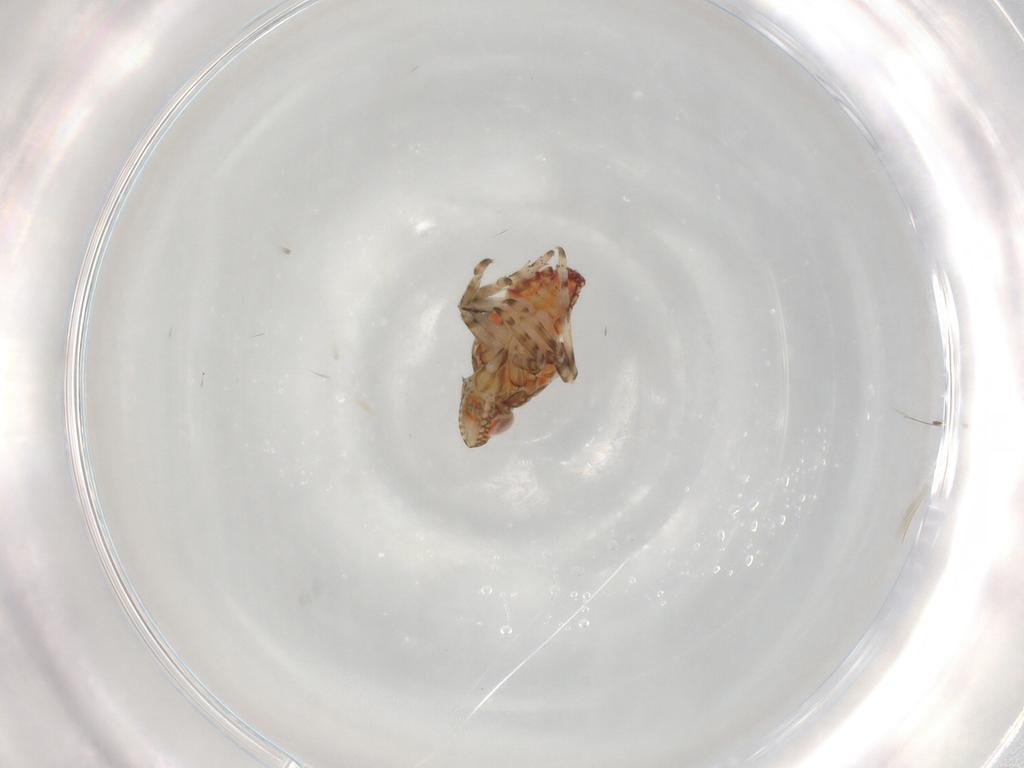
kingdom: Animalia
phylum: Arthropoda
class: Insecta
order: Hemiptera
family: Tropiduchidae
